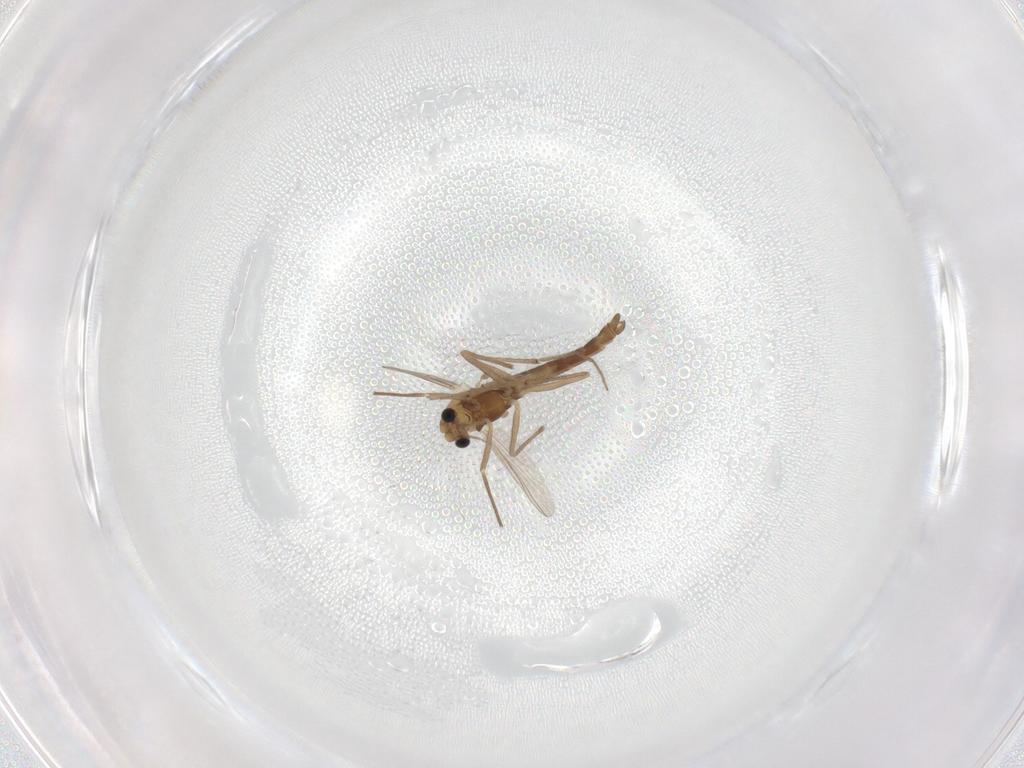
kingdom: Animalia
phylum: Arthropoda
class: Insecta
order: Diptera
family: Chironomidae
